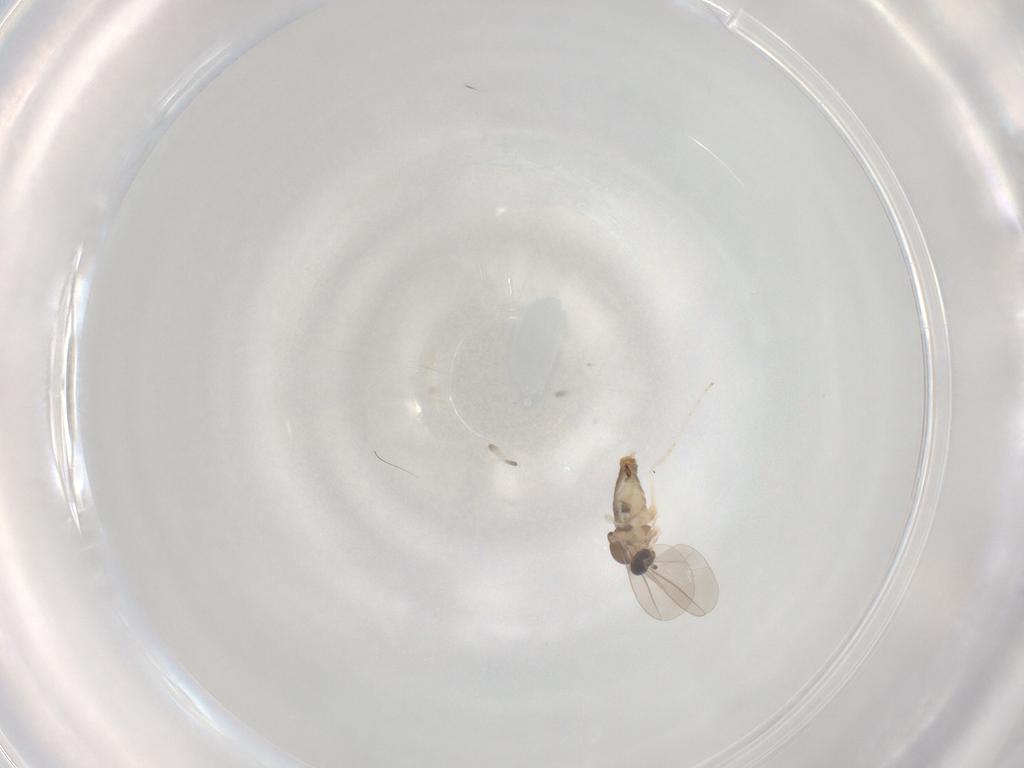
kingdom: Animalia
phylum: Arthropoda
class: Insecta
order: Diptera
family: Cecidomyiidae
